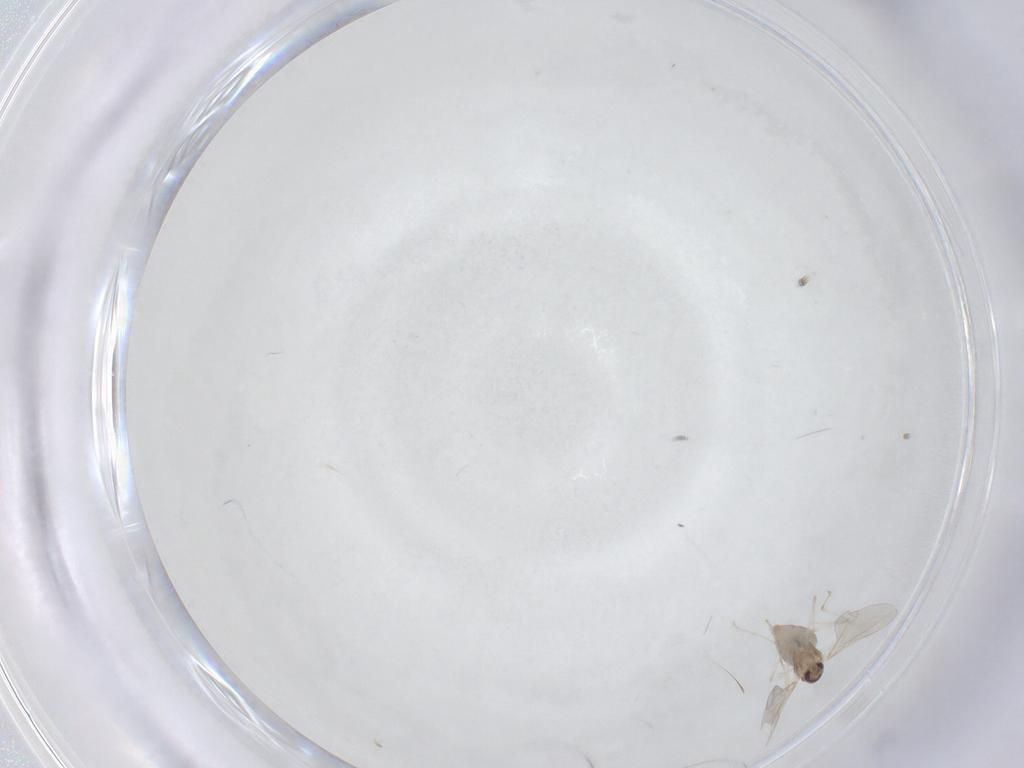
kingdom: Animalia
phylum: Arthropoda
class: Insecta
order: Diptera
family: Cecidomyiidae
